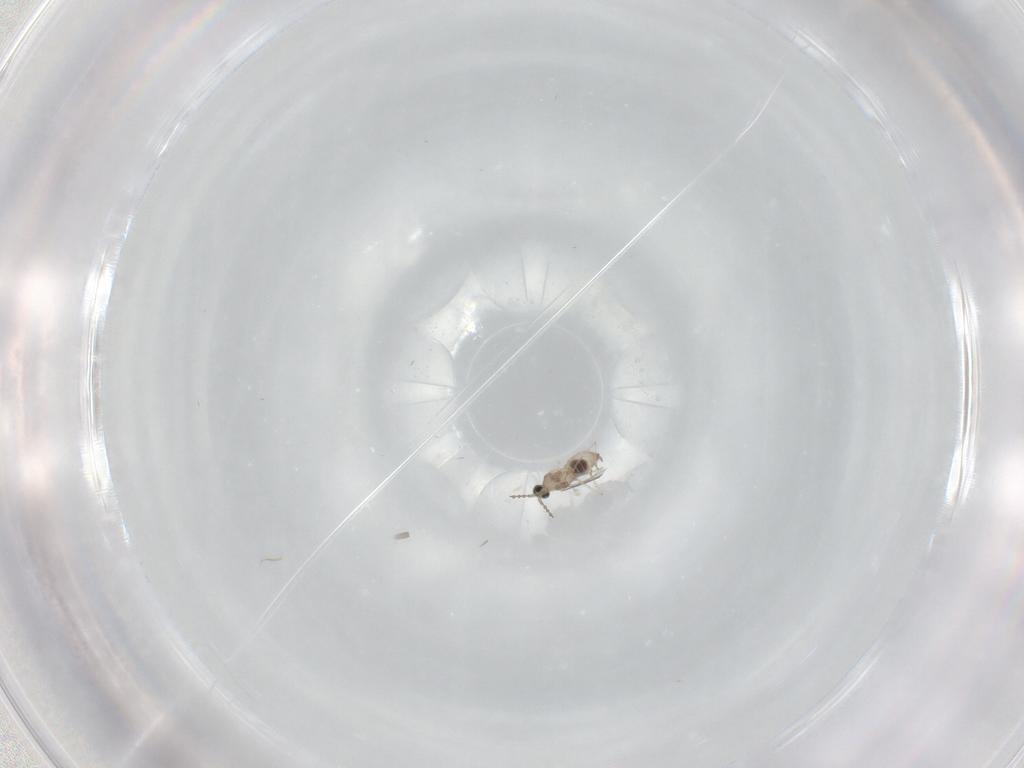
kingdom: Animalia
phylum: Arthropoda
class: Insecta
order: Diptera
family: Cecidomyiidae
